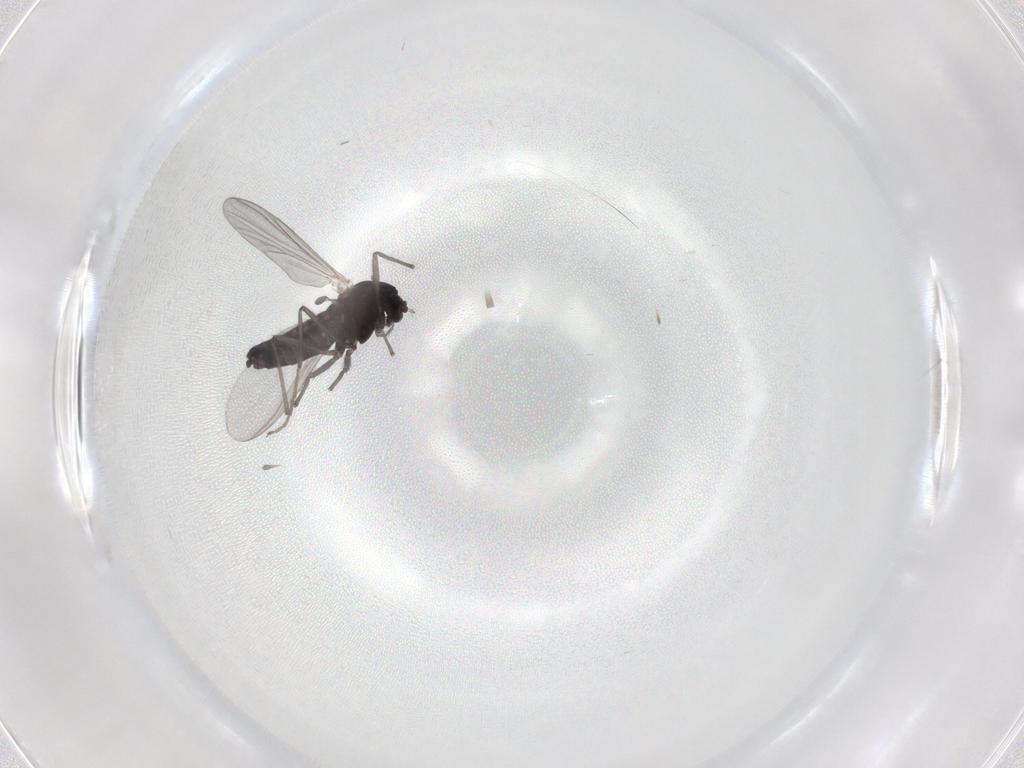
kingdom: Animalia
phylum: Arthropoda
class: Insecta
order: Diptera
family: Chironomidae
